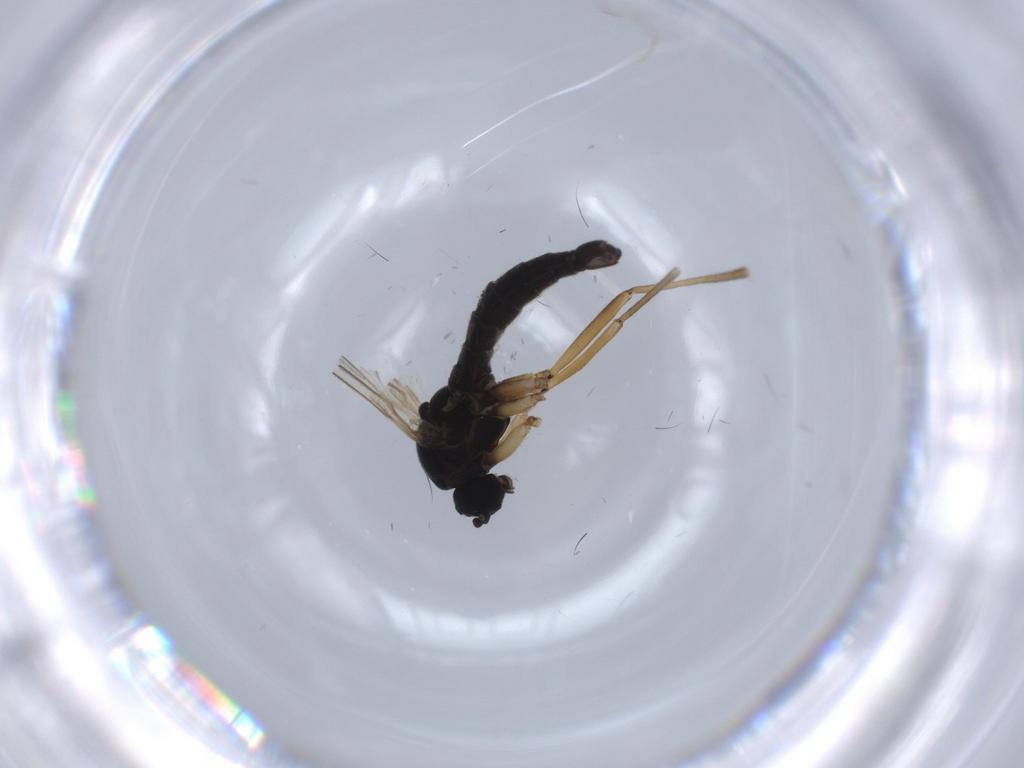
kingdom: Animalia
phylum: Arthropoda
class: Insecta
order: Diptera
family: Sciaridae
